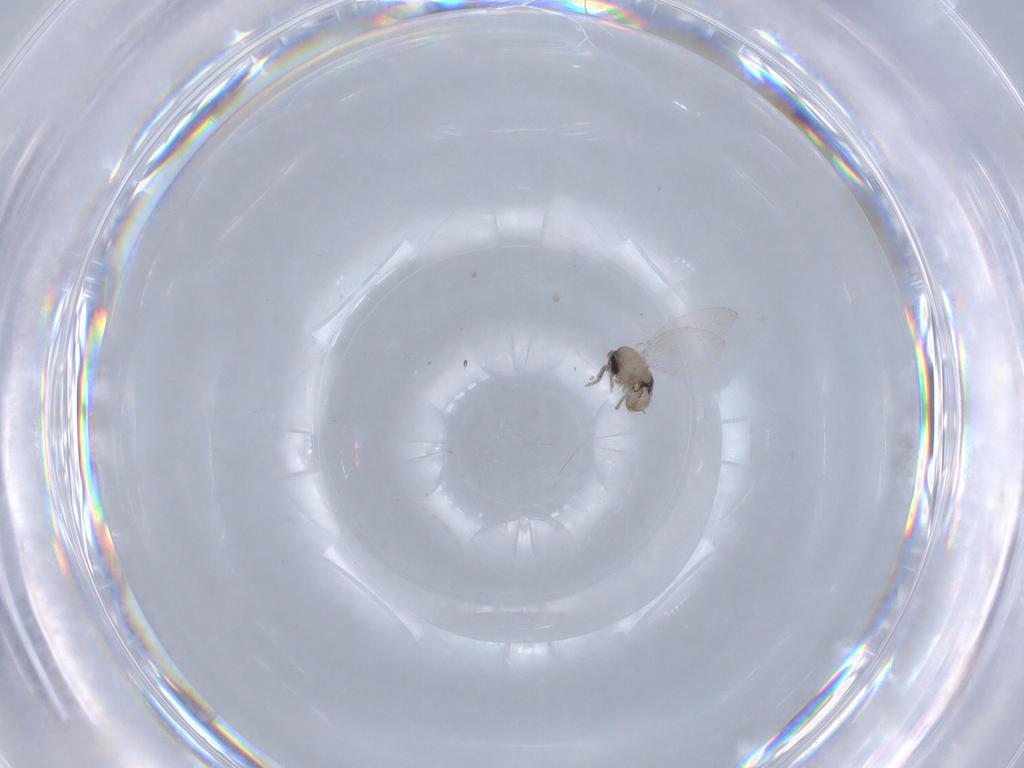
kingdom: Animalia
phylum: Arthropoda
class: Insecta
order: Diptera
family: Psychodidae
